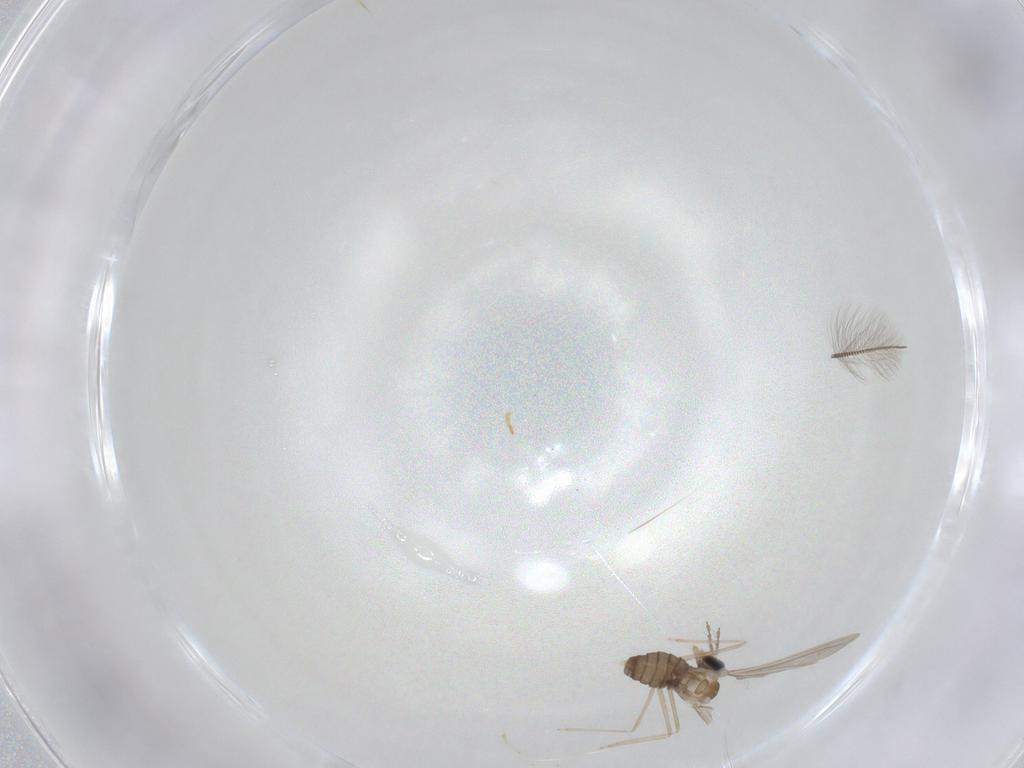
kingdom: Animalia
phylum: Arthropoda
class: Insecta
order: Diptera
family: Cecidomyiidae
